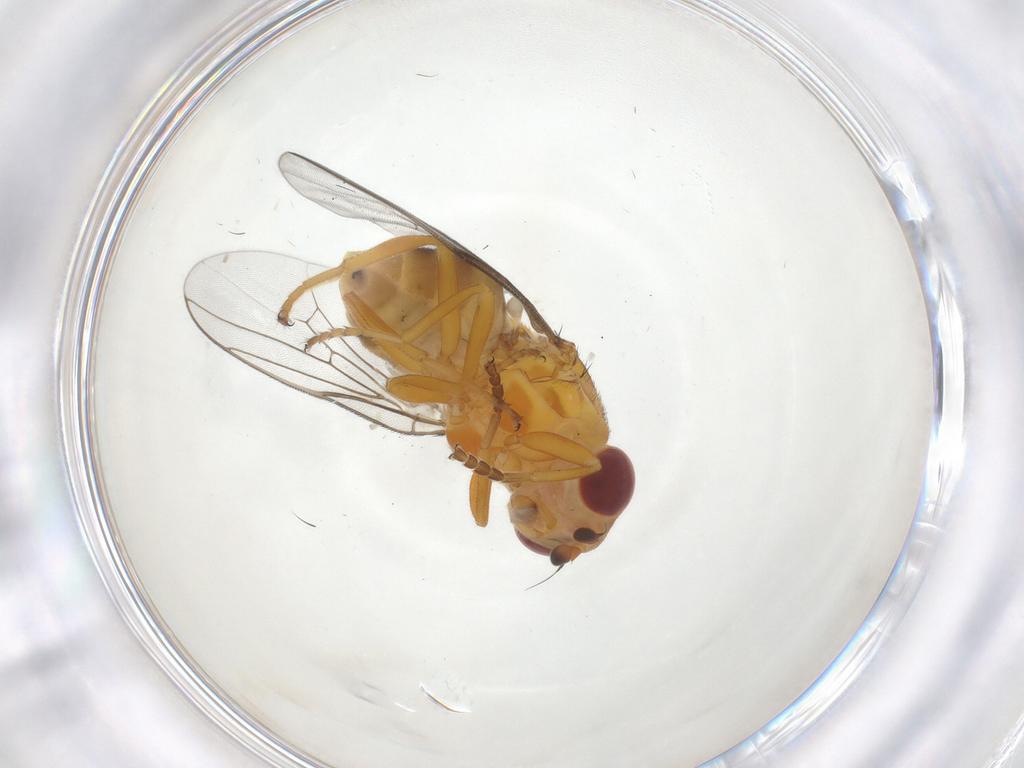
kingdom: Animalia
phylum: Arthropoda
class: Insecta
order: Diptera
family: Chloropidae
